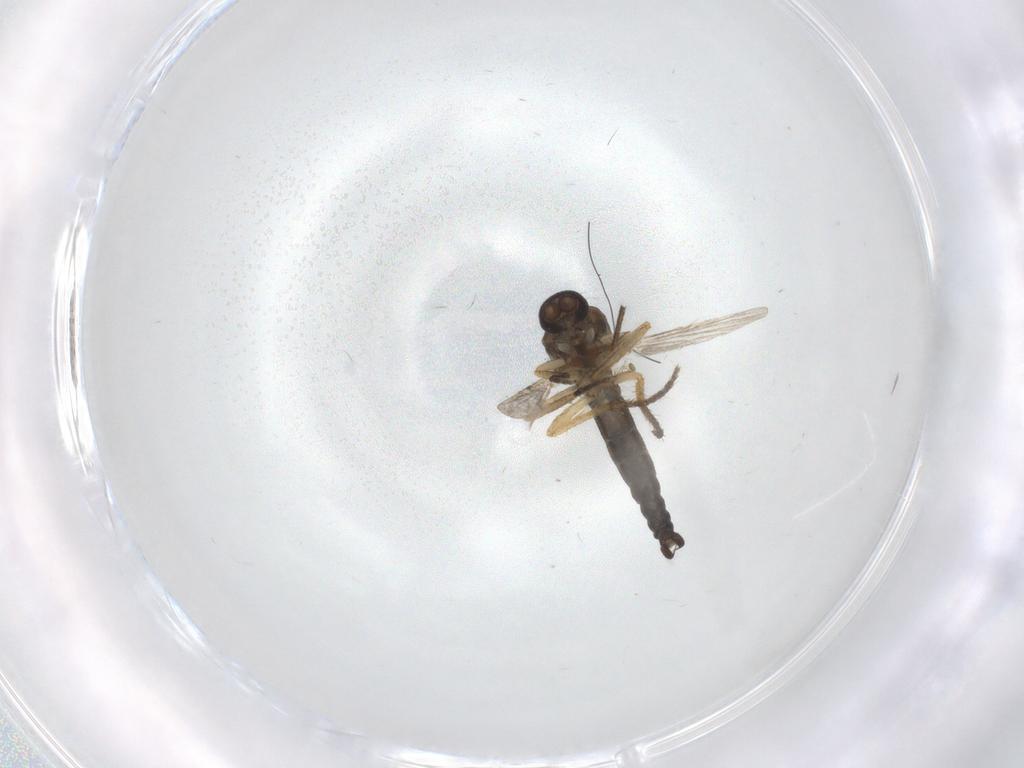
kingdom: Animalia
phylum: Arthropoda
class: Insecta
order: Diptera
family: Ceratopogonidae
